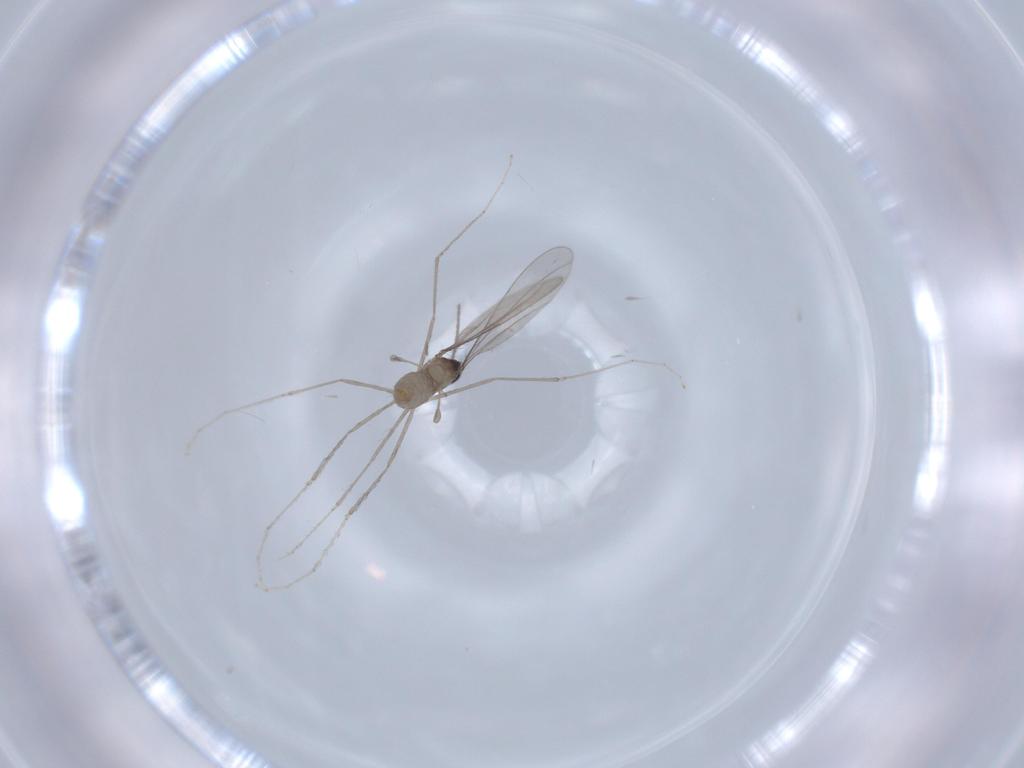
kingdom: Animalia
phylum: Arthropoda
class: Insecta
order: Diptera
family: Cecidomyiidae
